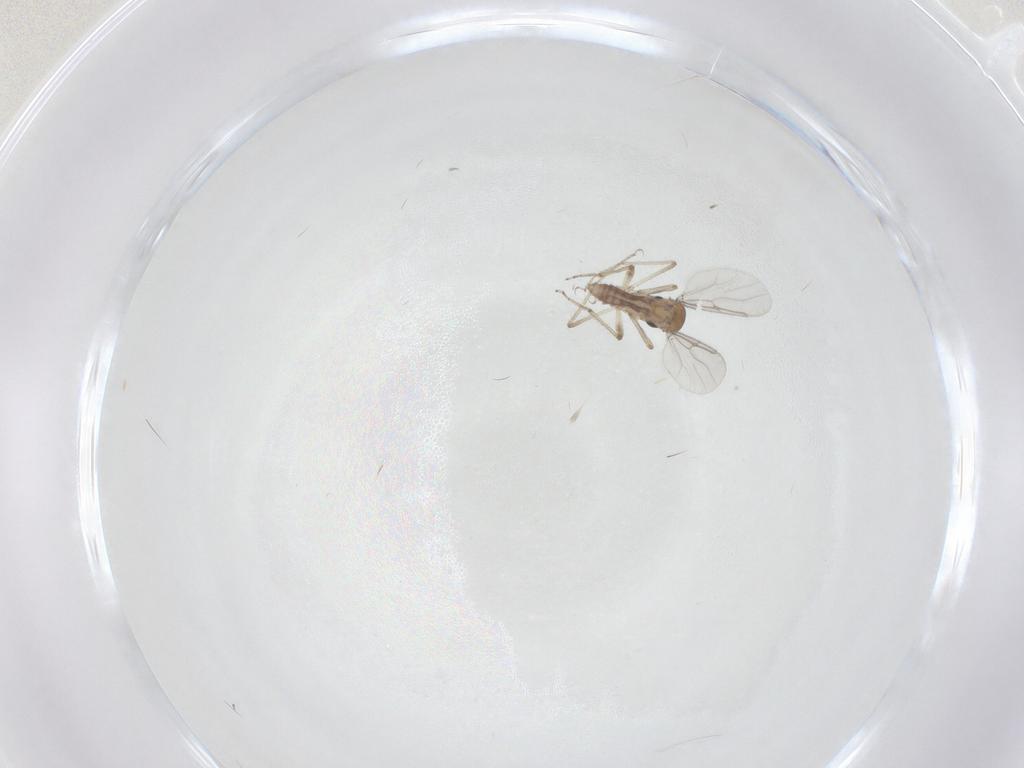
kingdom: Animalia
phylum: Arthropoda
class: Insecta
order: Diptera
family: Ceratopogonidae
